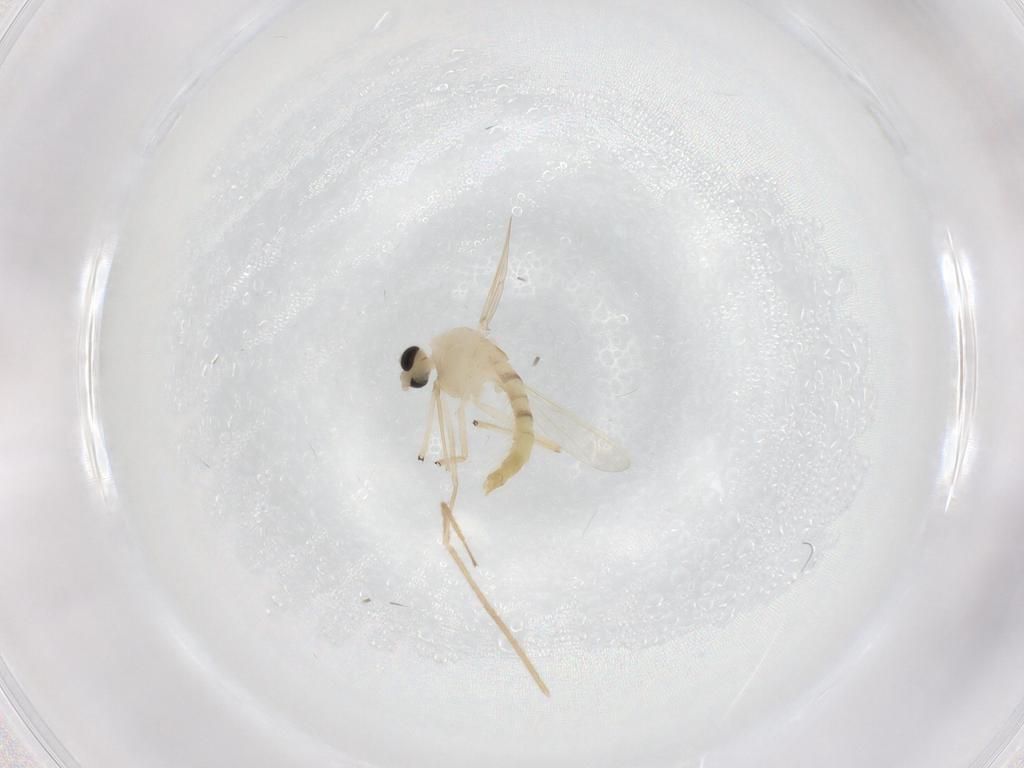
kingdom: Animalia
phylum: Arthropoda
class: Insecta
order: Diptera
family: Chironomidae
